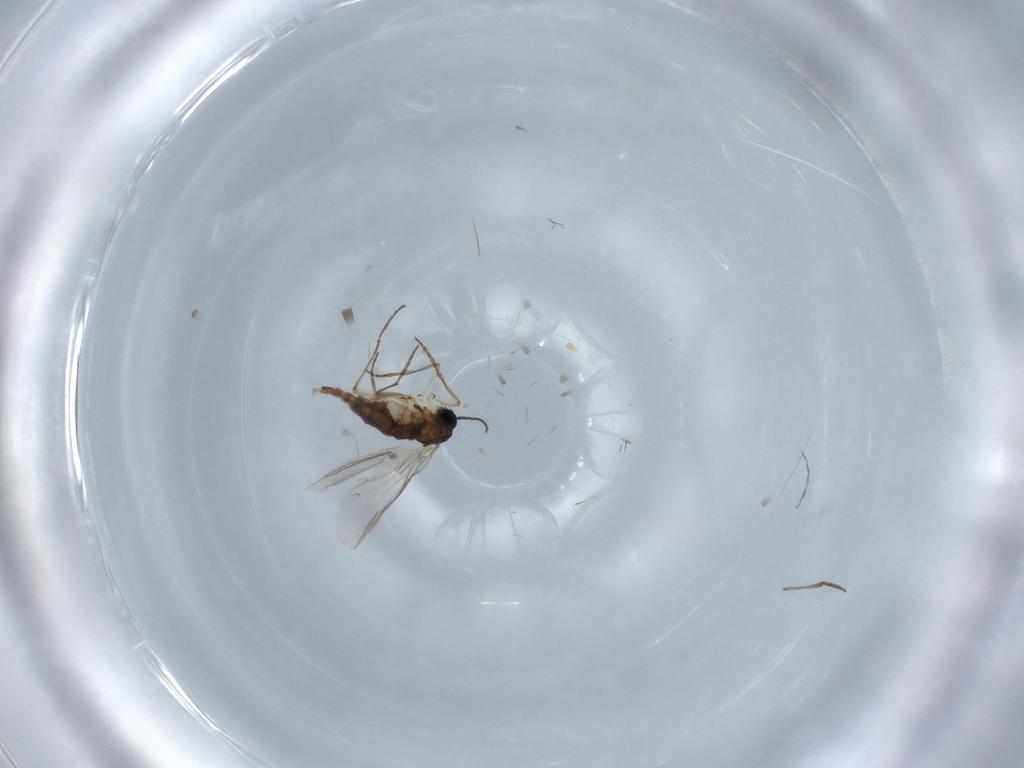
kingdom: Animalia
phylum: Arthropoda
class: Insecta
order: Diptera
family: Cecidomyiidae
